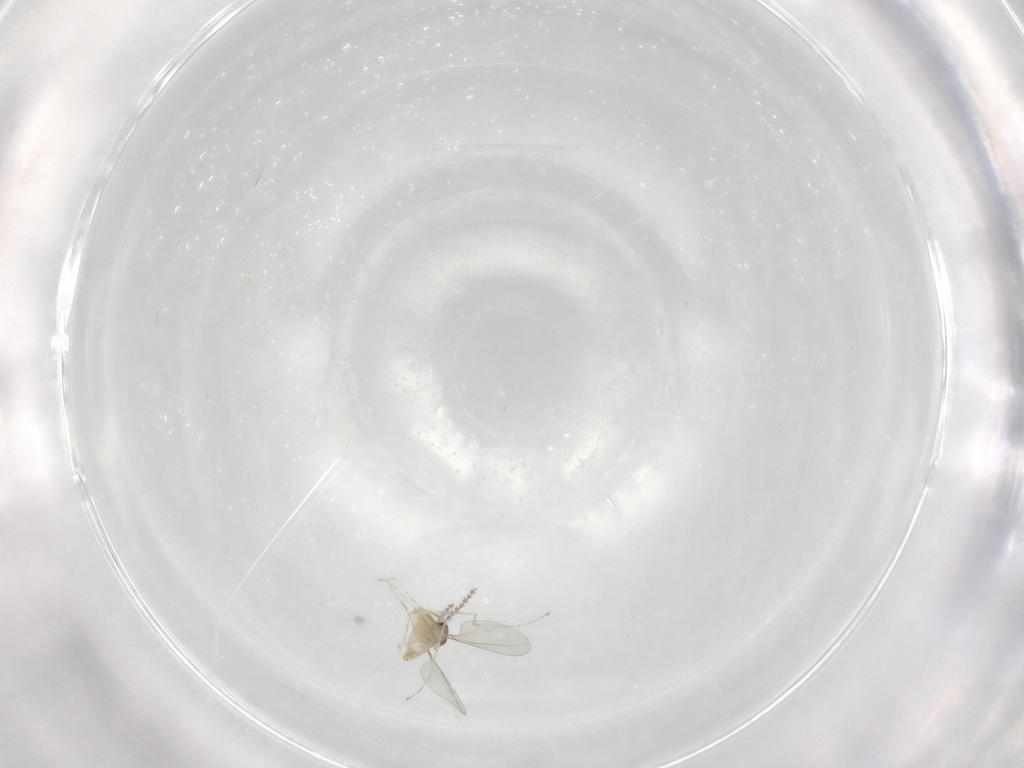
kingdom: Animalia
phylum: Arthropoda
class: Insecta
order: Diptera
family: Cecidomyiidae
